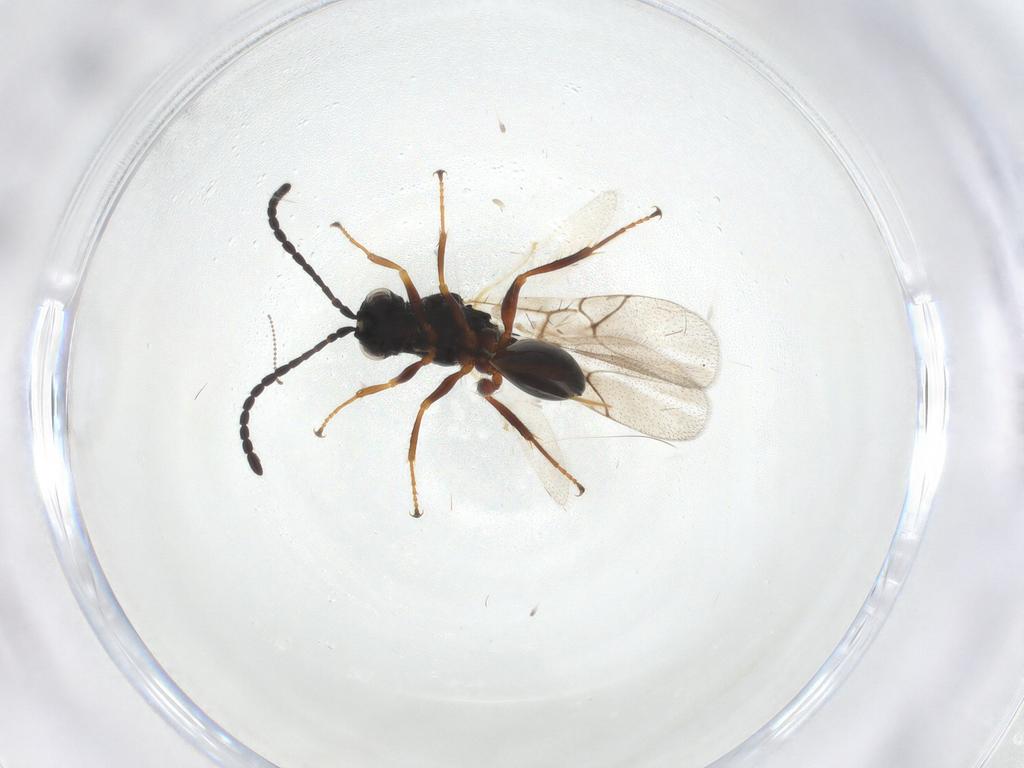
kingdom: Animalia
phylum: Arthropoda
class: Insecta
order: Hymenoptera
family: Figitidae
